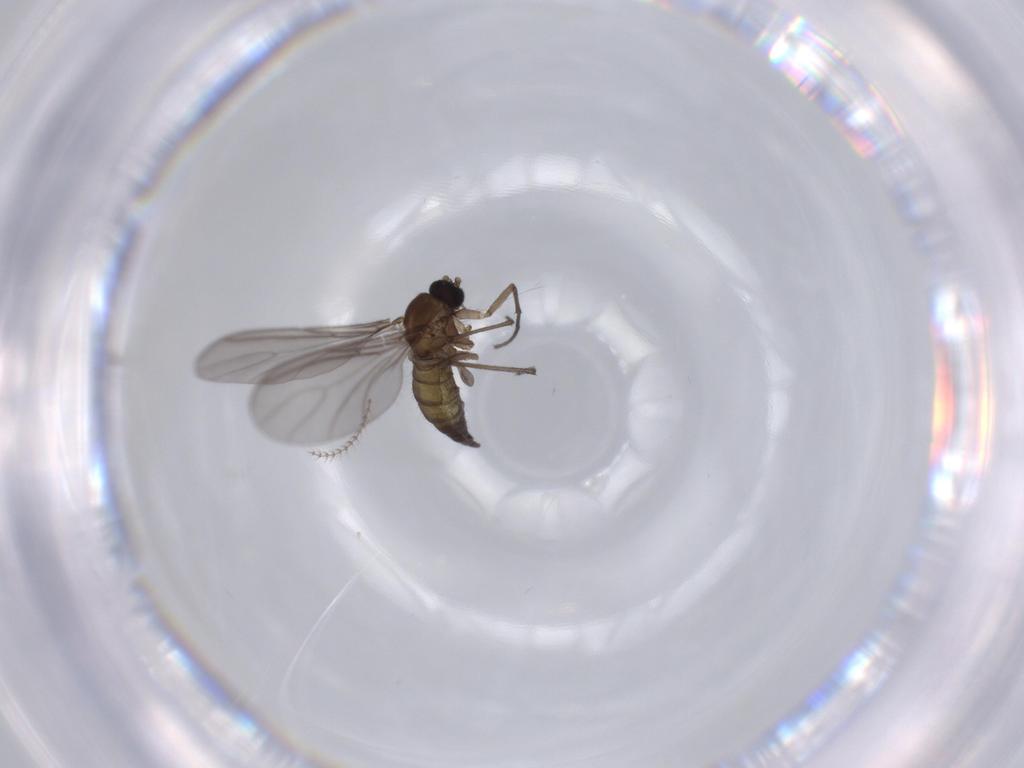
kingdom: Animalia
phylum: Arthropoda
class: Insecta
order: Diptera
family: Sciaridae
